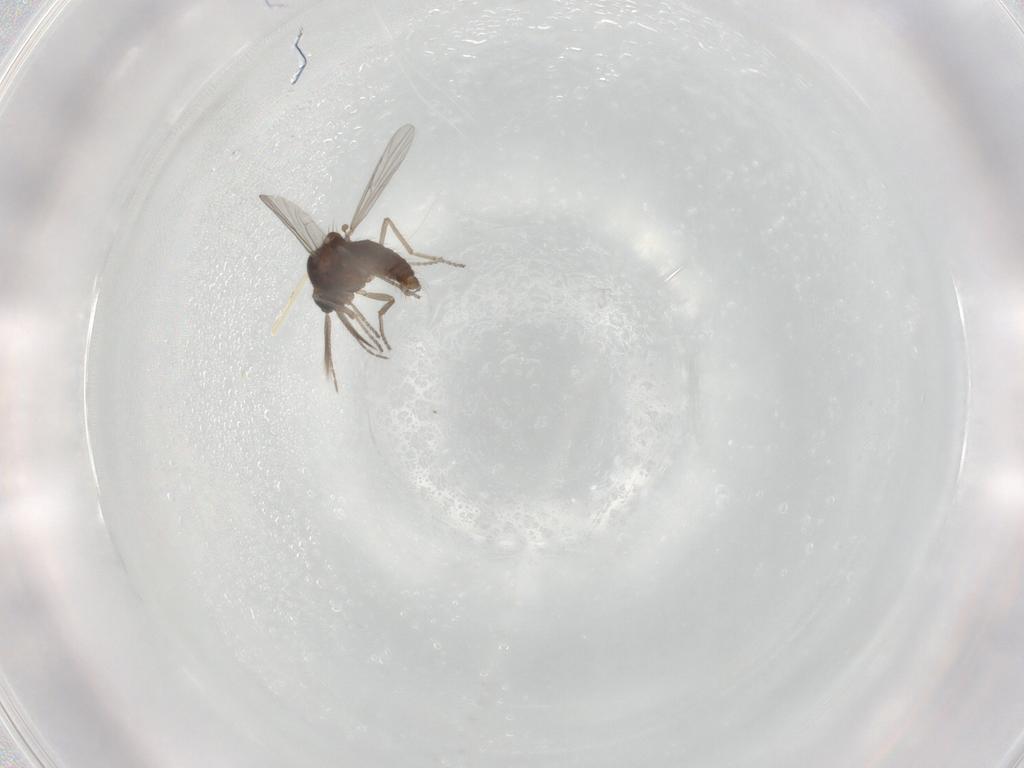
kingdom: Animalia
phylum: Arthropoda
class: Insecta
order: Diptera
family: Ceratopogonidae
